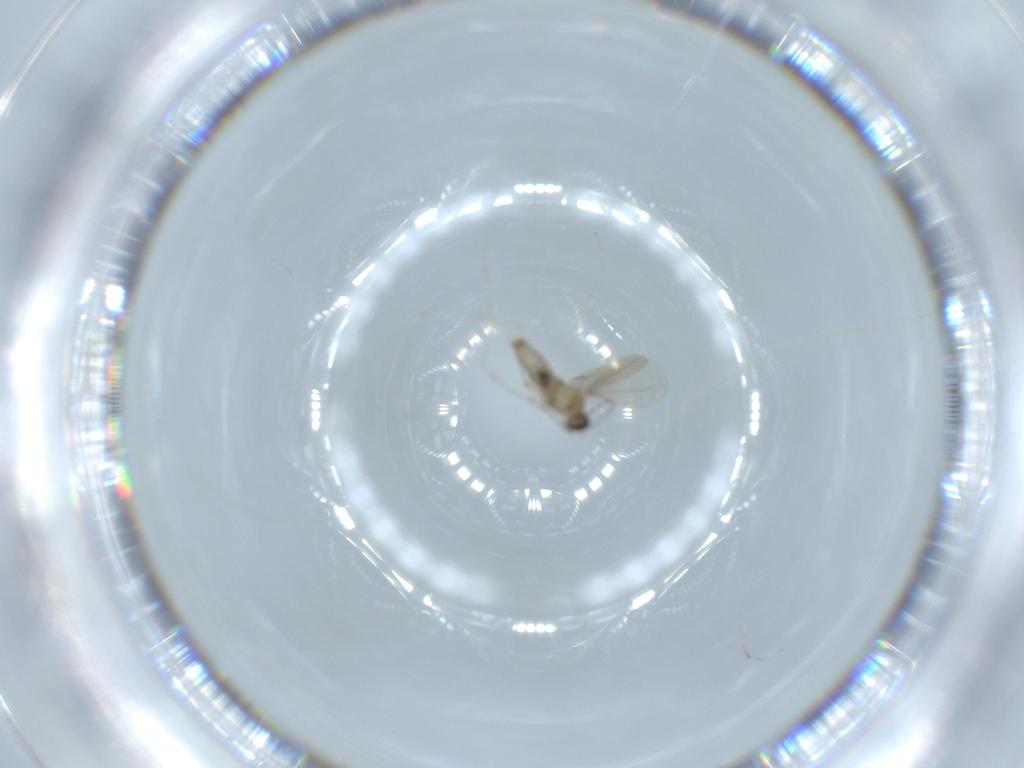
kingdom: Animalia
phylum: Arthropoda
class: Insecta
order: Diptera
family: Cecidomyiidae
